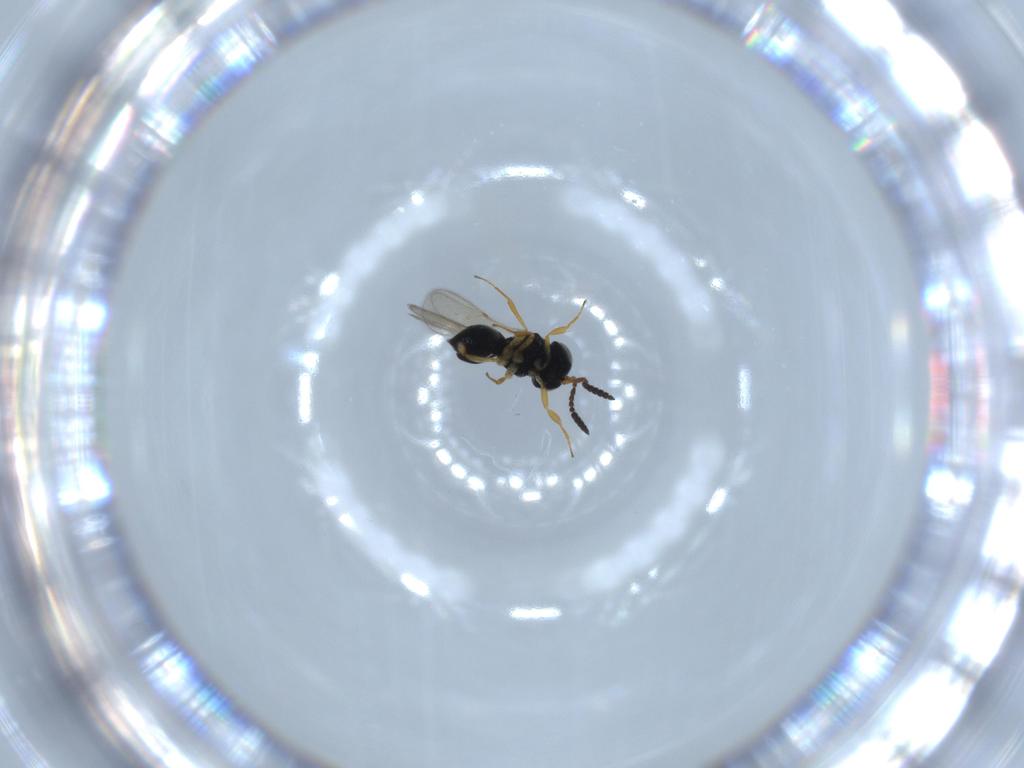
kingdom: Animalia
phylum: Arthropoda
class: Insecta
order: Hymenoptera
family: Scelionidae
